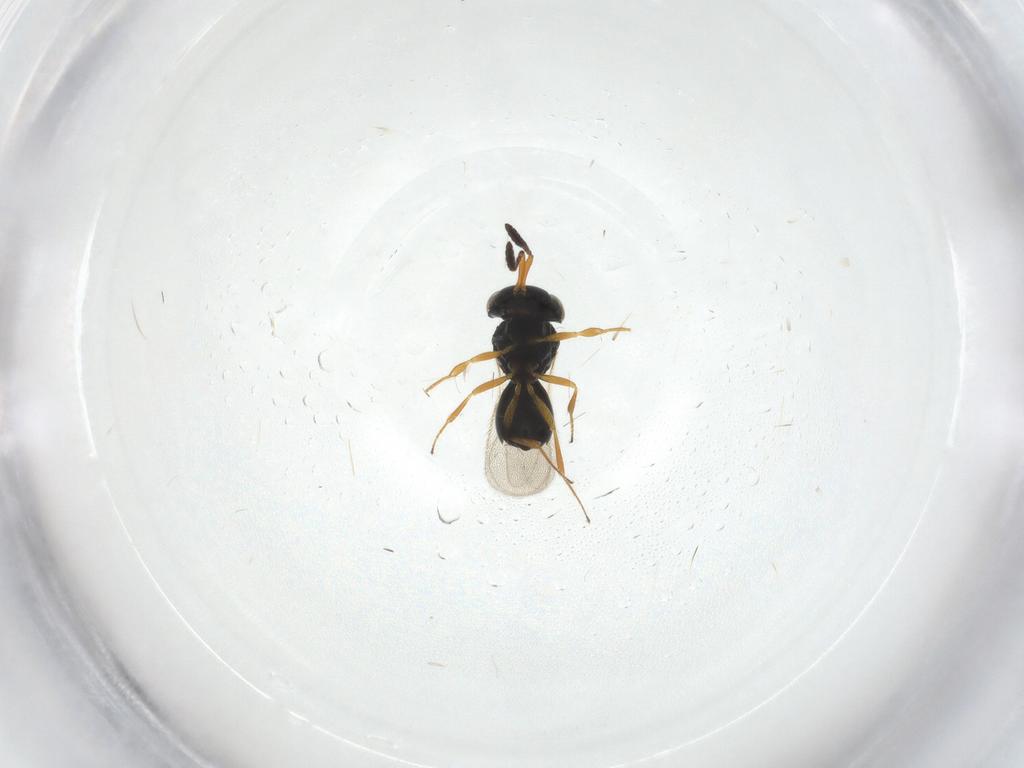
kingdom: Animalia
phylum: Arthropoda
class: Insecta
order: Hymenoptera
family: Scelionidae
